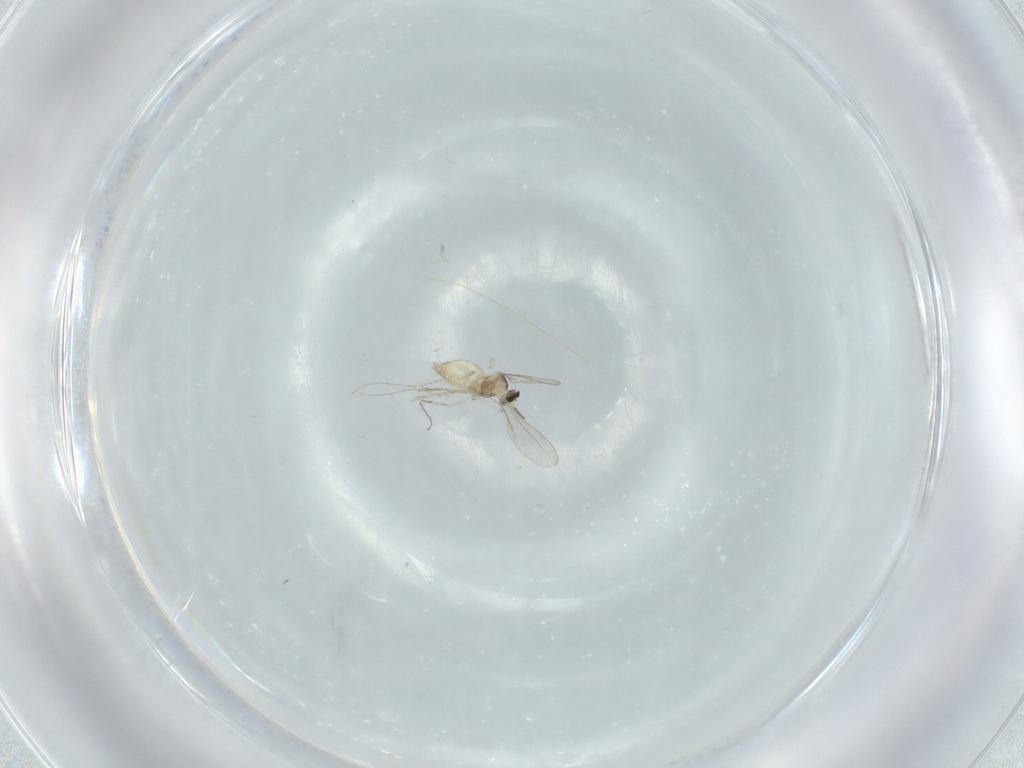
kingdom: Animalia
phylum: Arthropoda
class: Insecta
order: Diptera
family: Cecidomyiidae
